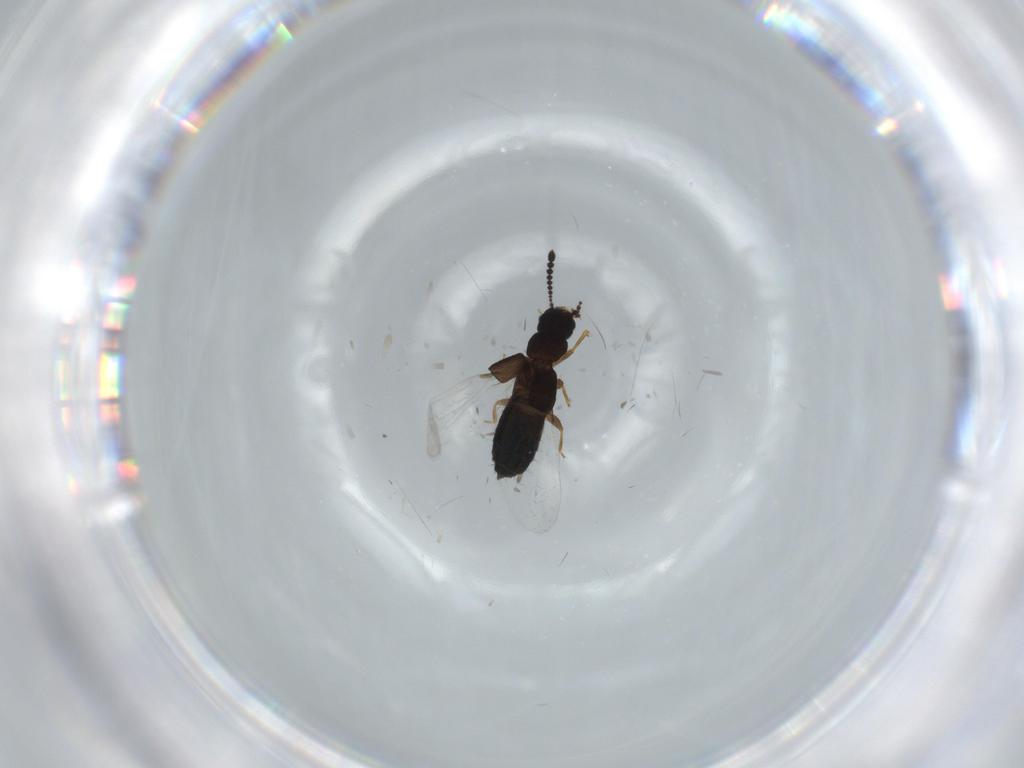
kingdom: Animalia
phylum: Arthropoda
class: Insecta
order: Coleoptera
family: Staphylinidae
